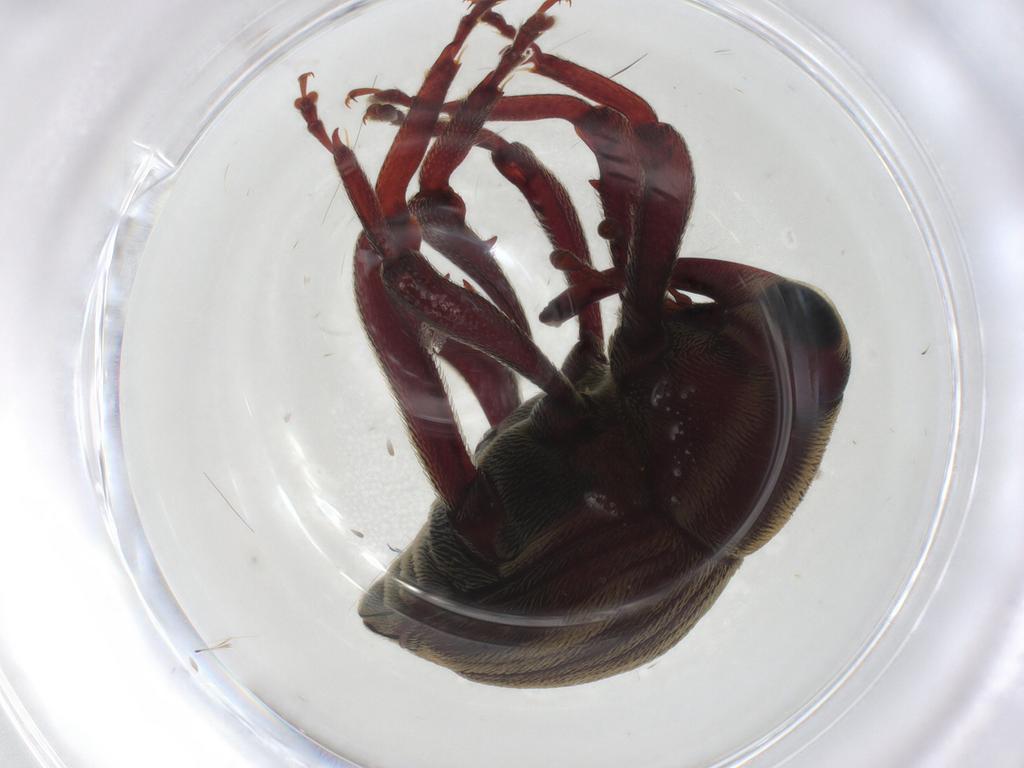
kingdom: Animalia
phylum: Arthropoda
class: Insecta
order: Coleoptera
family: Curculionidae
